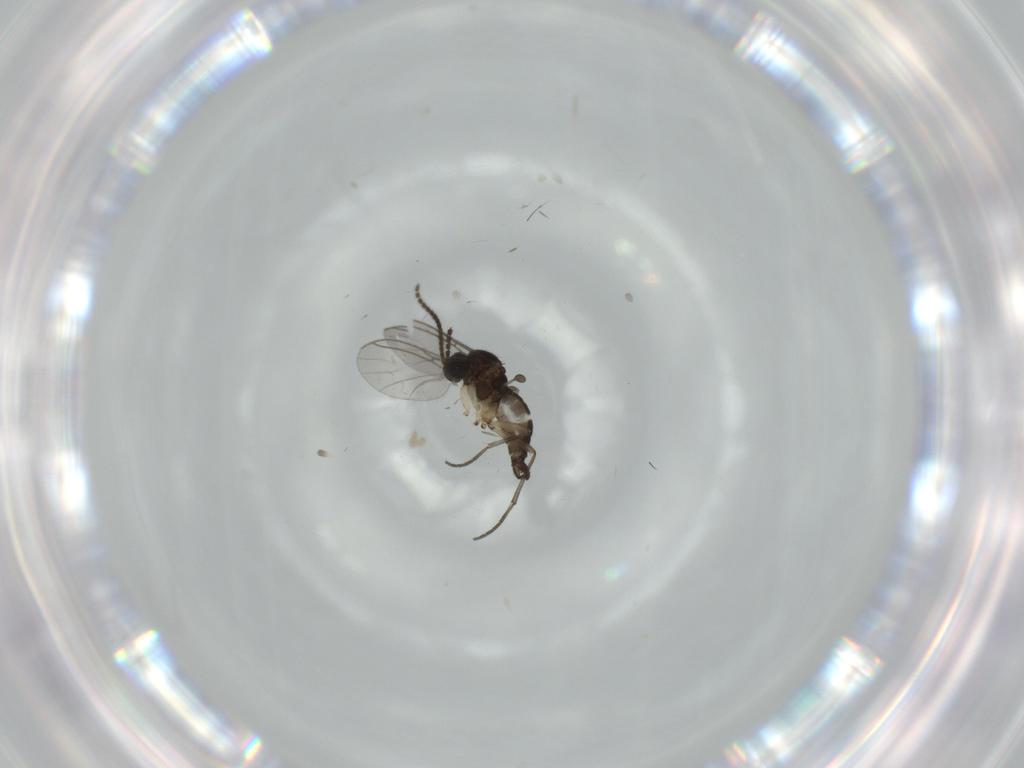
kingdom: Animalia
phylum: Arthropoda
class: Insecta
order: Diptera
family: Sciaridae
